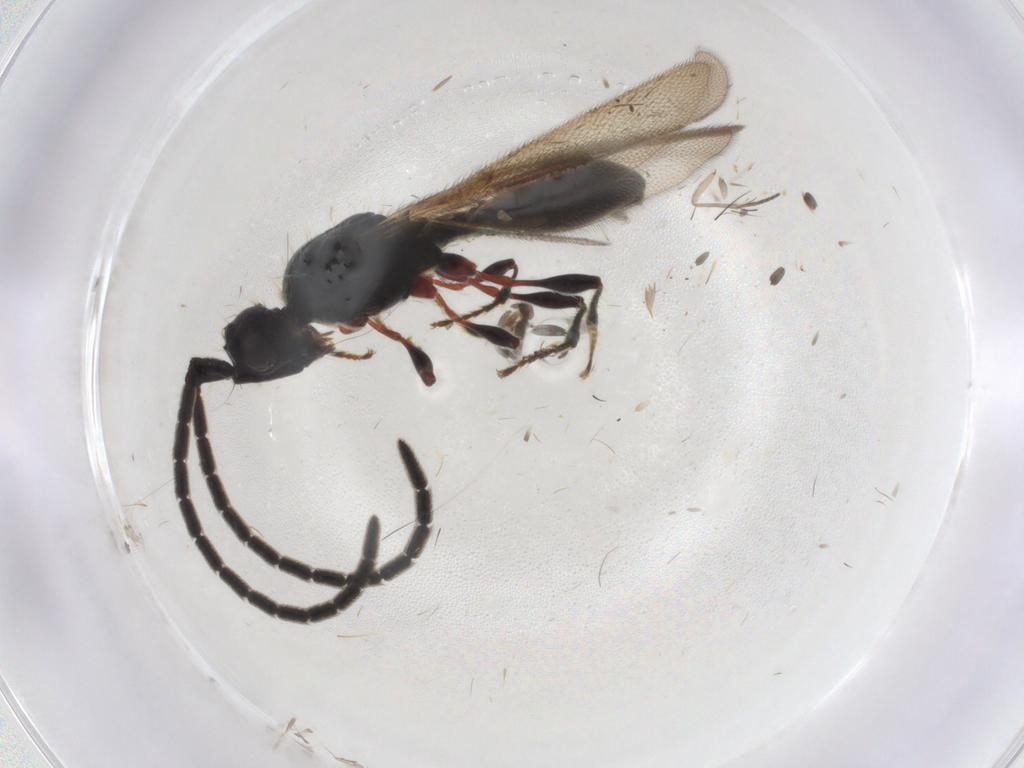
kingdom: Animalia
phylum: Arthropoda
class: Insecta
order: Hymenoptera
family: Diapriidae
